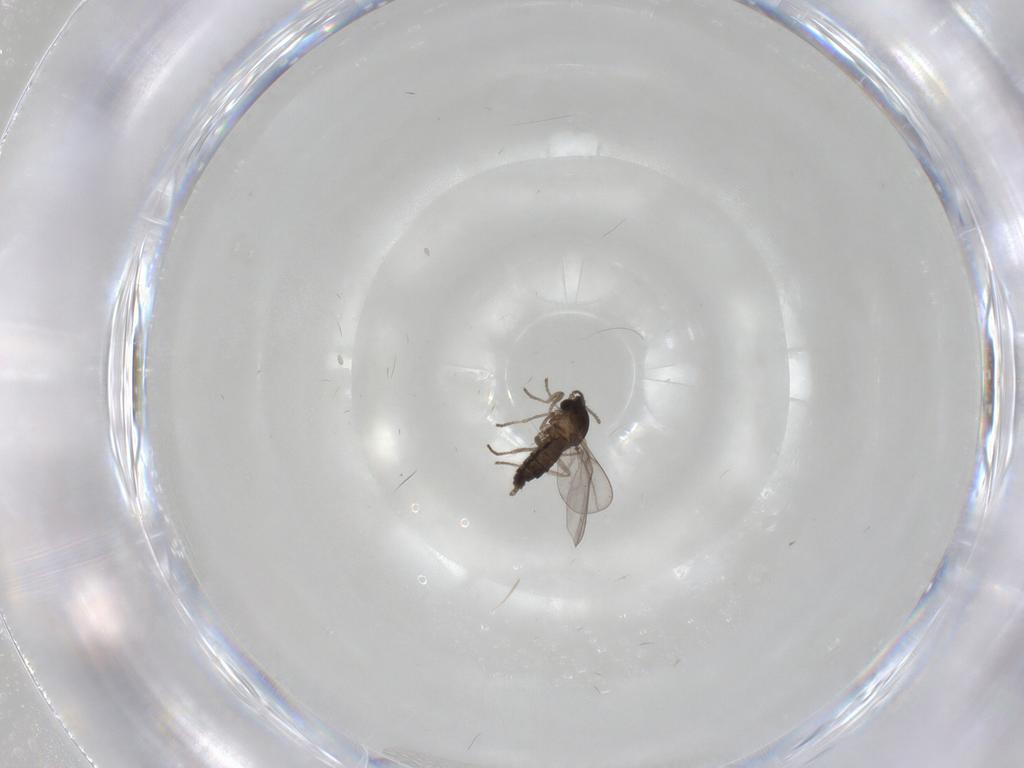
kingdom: Animalia
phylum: Arthropoda
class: Insecta
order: Diptera
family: Cecidomyiidae
